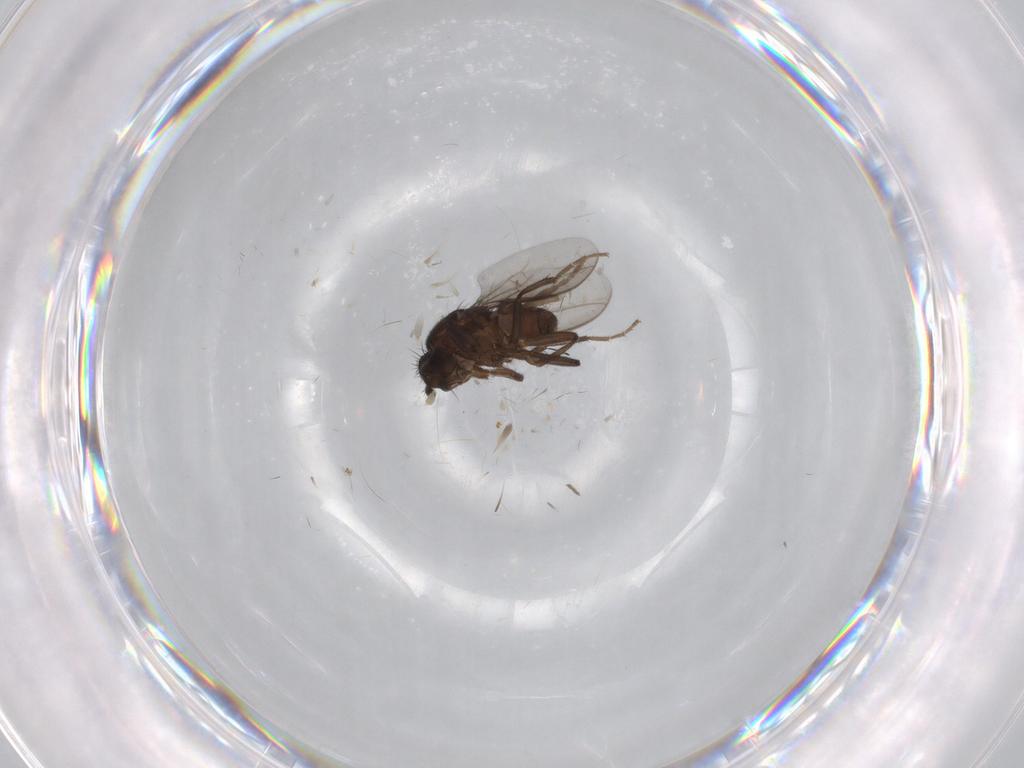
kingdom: Animalia
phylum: Arthropoda
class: Insecta
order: Diptera
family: Sphaeroceridae
